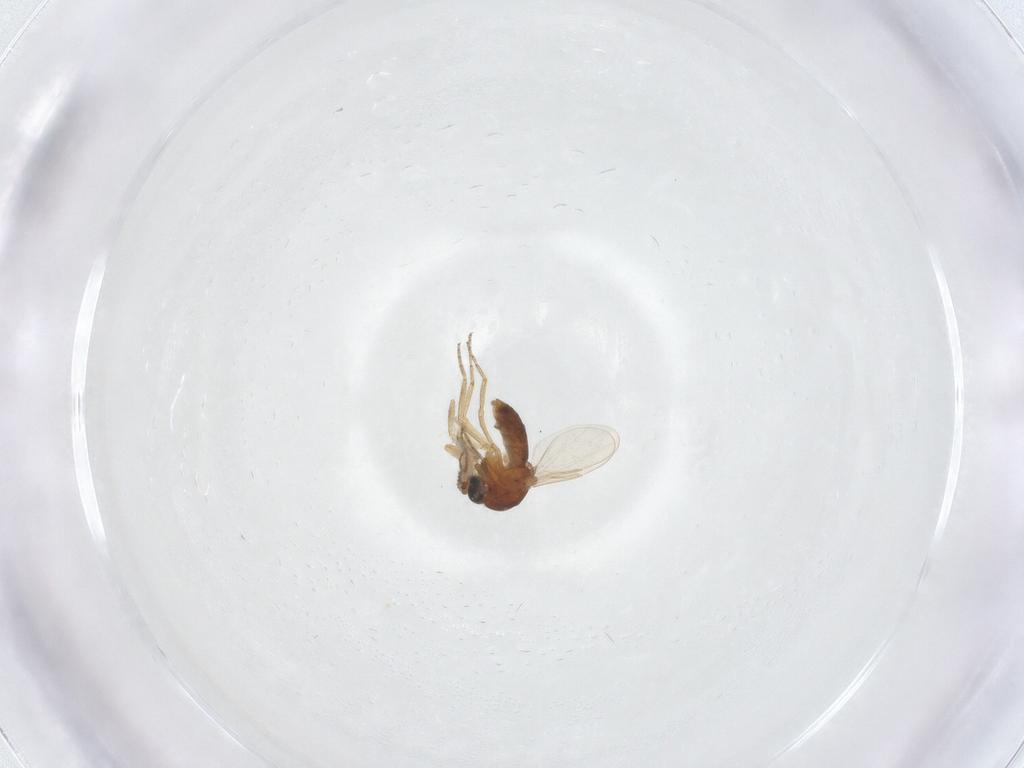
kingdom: Animalia
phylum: Arthropoda
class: Insecta
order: Diptera
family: Ceratopogonidae
